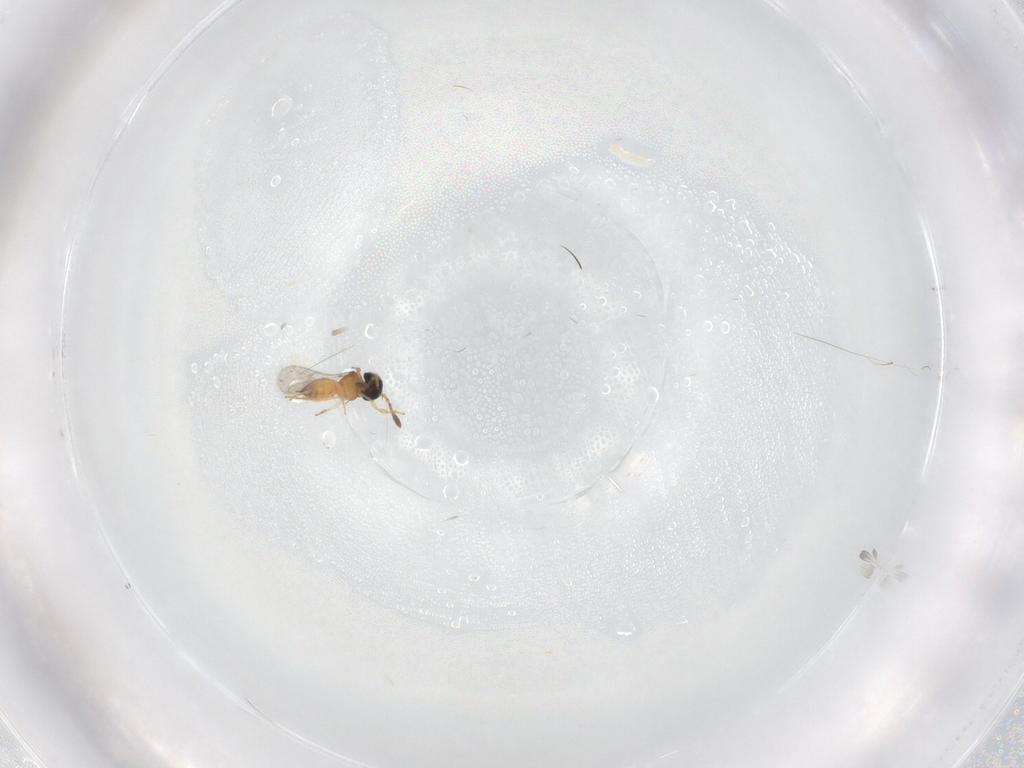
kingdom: Animalia
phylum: Arthropoda
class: Insecta
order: Hymenoptera
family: Scelionidae
